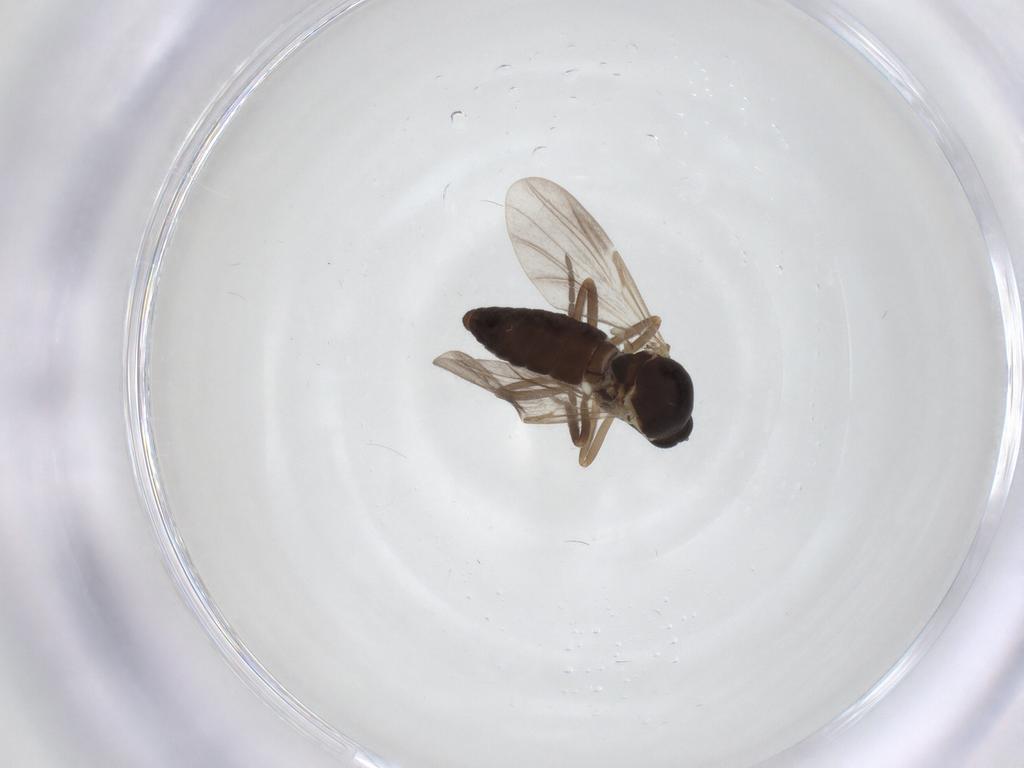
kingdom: Animalia
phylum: Arthropoda
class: Insecta
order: Diptera
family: Ceratopogonidae
